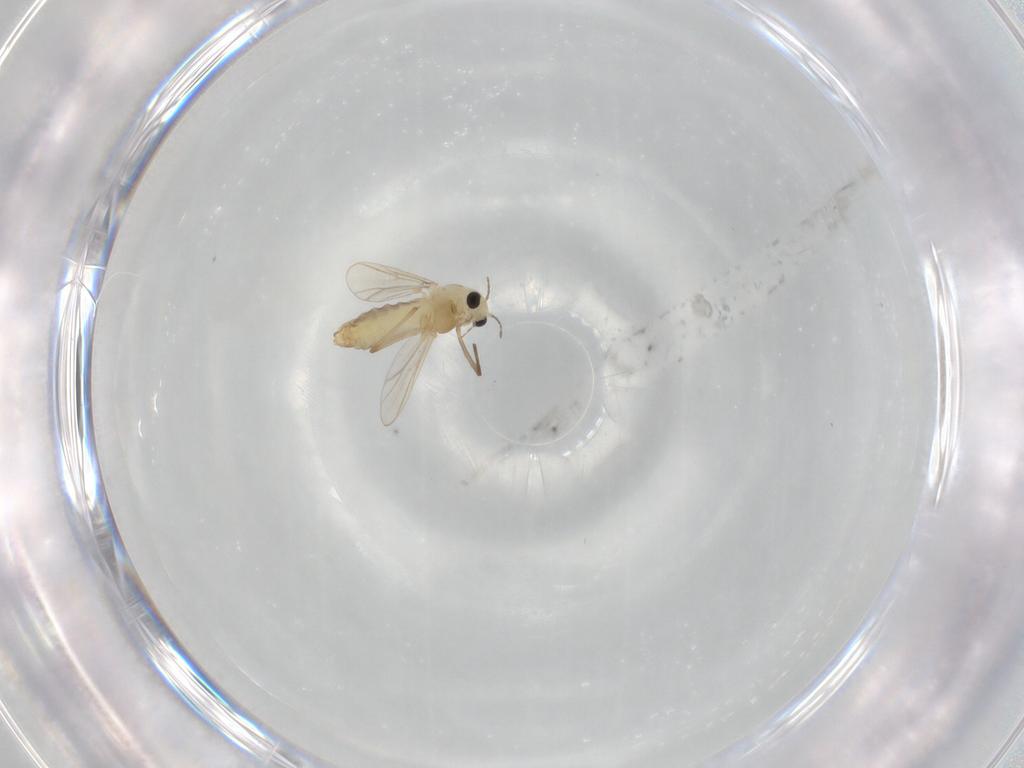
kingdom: Animalia
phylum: Arthropoda
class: Insecta
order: Diptera
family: Chironomidae
